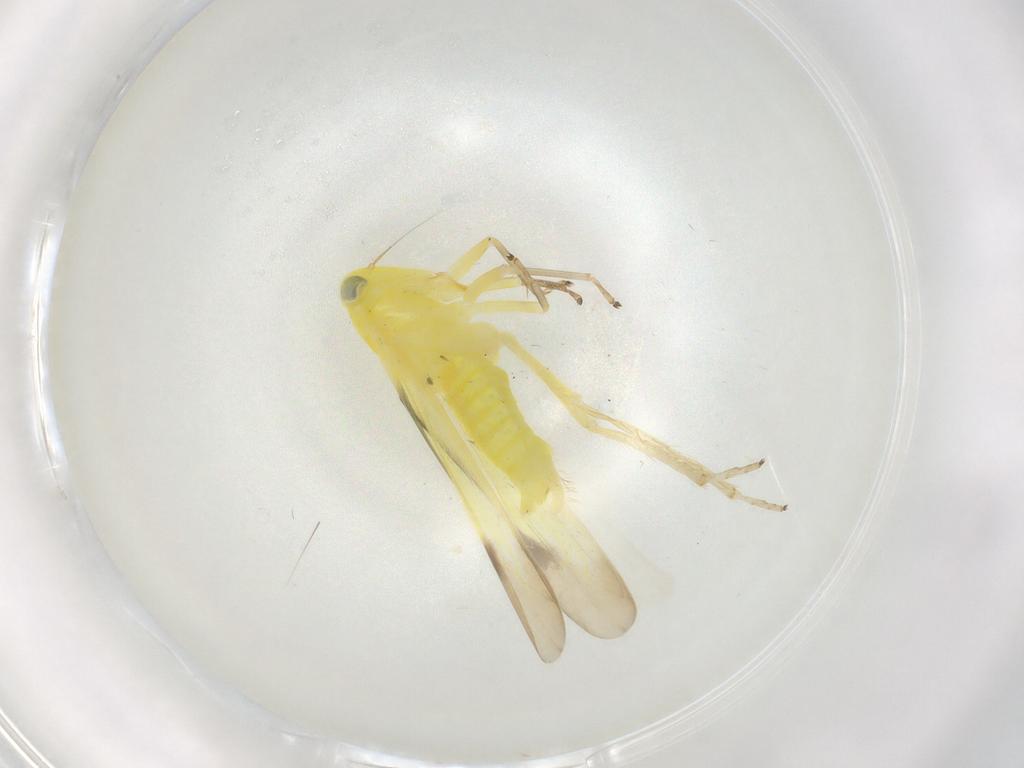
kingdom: Animalia
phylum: Arthropoda
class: Insecta
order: Hemiptera
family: Cicadellidae
